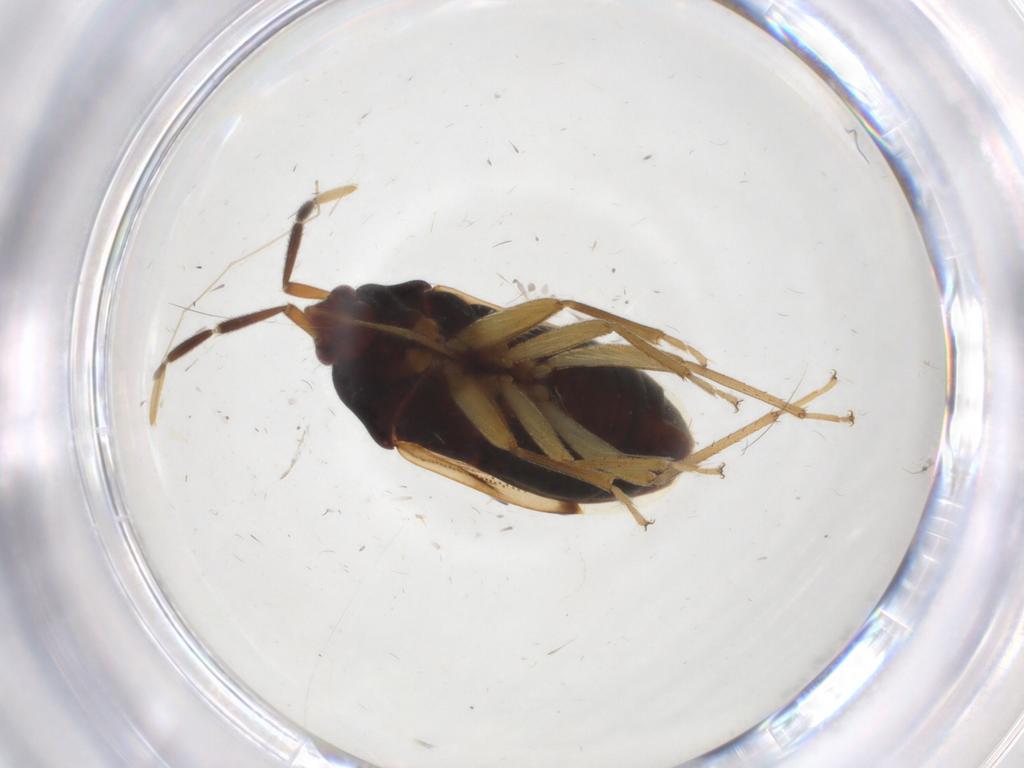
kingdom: Animalia
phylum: Arthropoda
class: Insecta
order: Hemiptera
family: Rhyparochromidae
